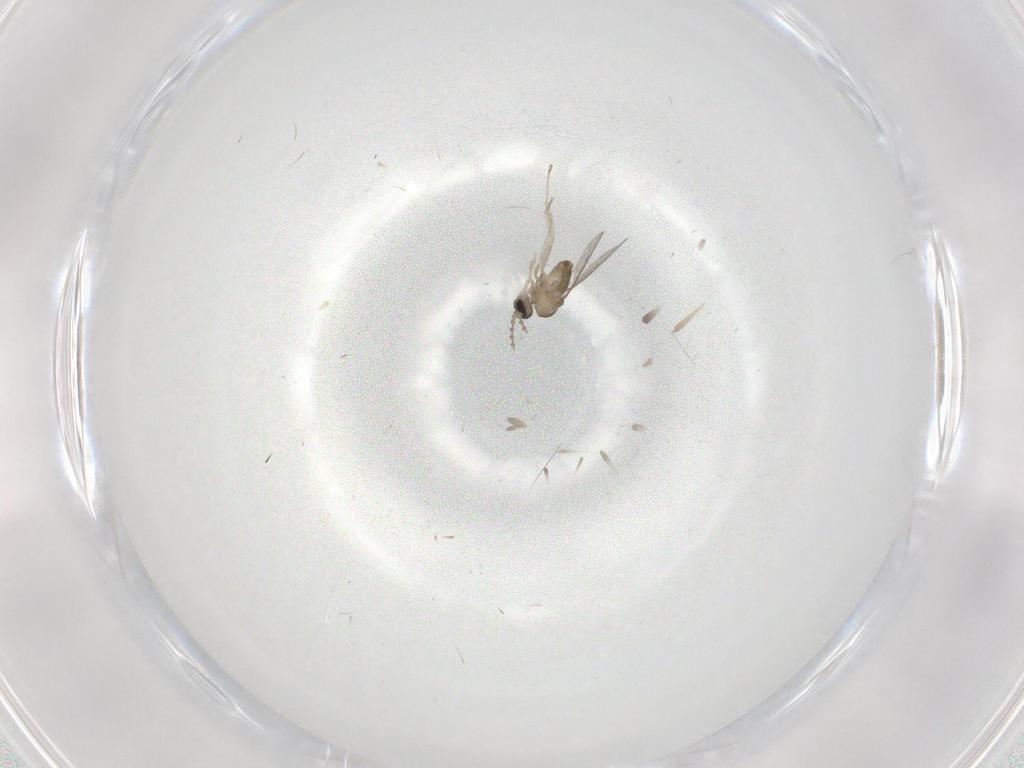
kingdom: Animalia
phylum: Arthropoda
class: Insecta
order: Diptera
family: Cecidomyiidae
